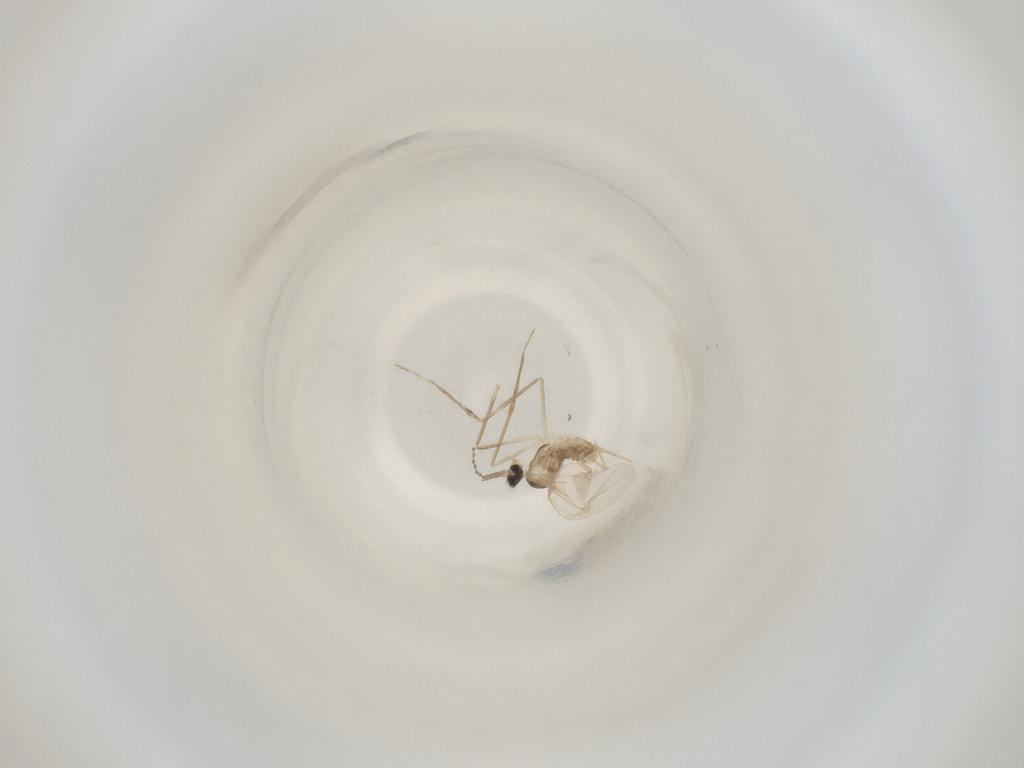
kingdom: Animalia
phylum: Arthropoda
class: Insecta
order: Diptera
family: Cecidomyiidae
